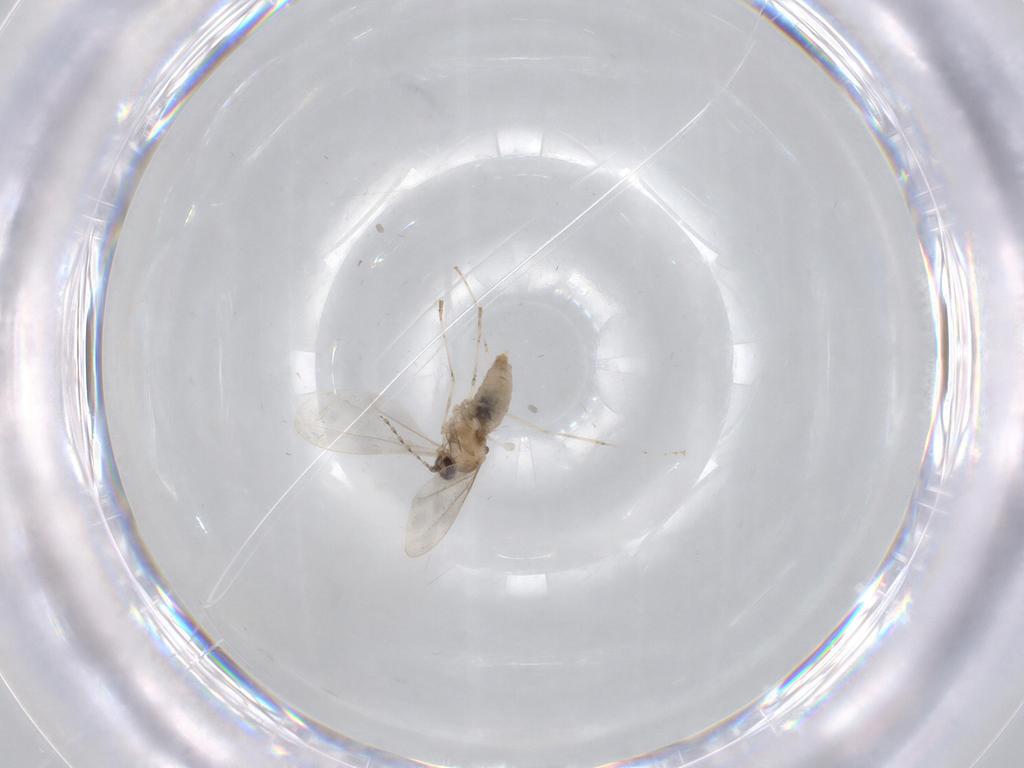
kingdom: Animalia
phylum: Arthropoda
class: Insecta
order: Diptera
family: Cecidomyiidae
